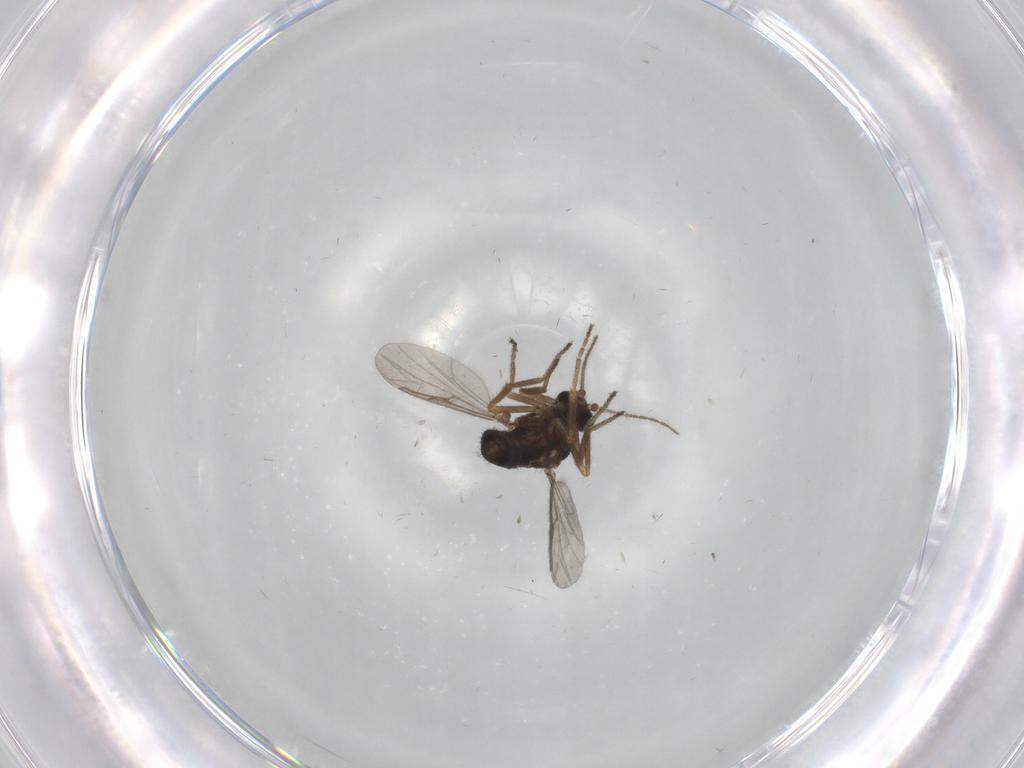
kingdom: Animalia
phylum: Arthropoda
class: Insecta
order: Diptera
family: Ceratopogonidae
